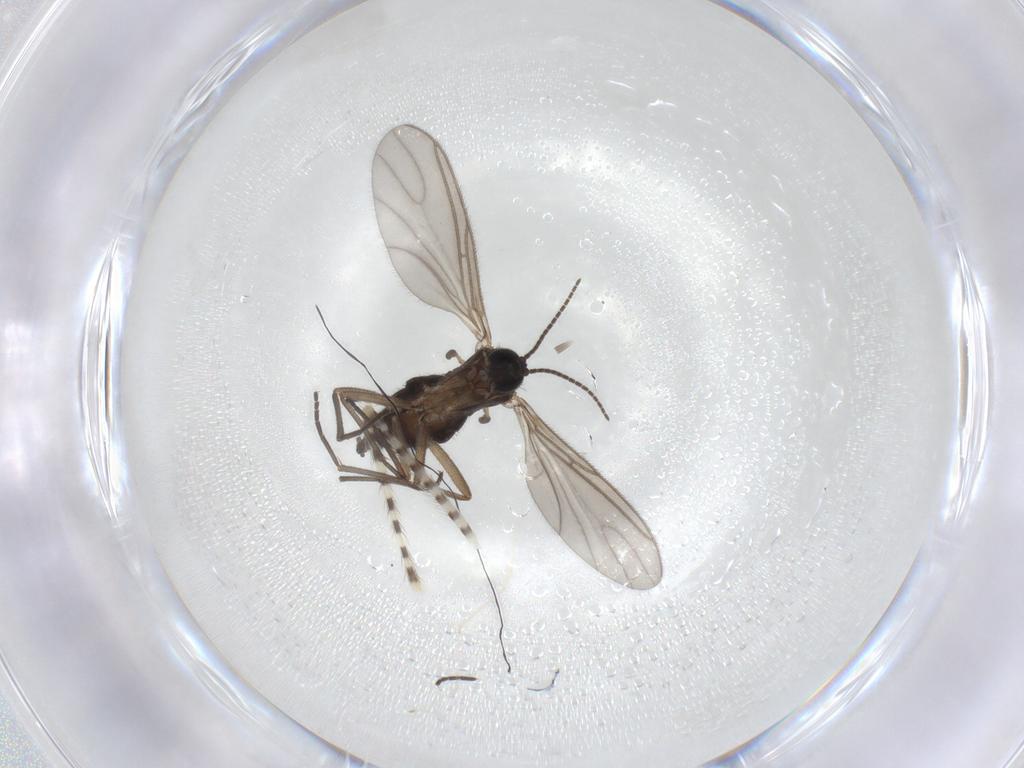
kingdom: Animalia
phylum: Arthropoda
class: Insecta
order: Diptera
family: Sciaridae
